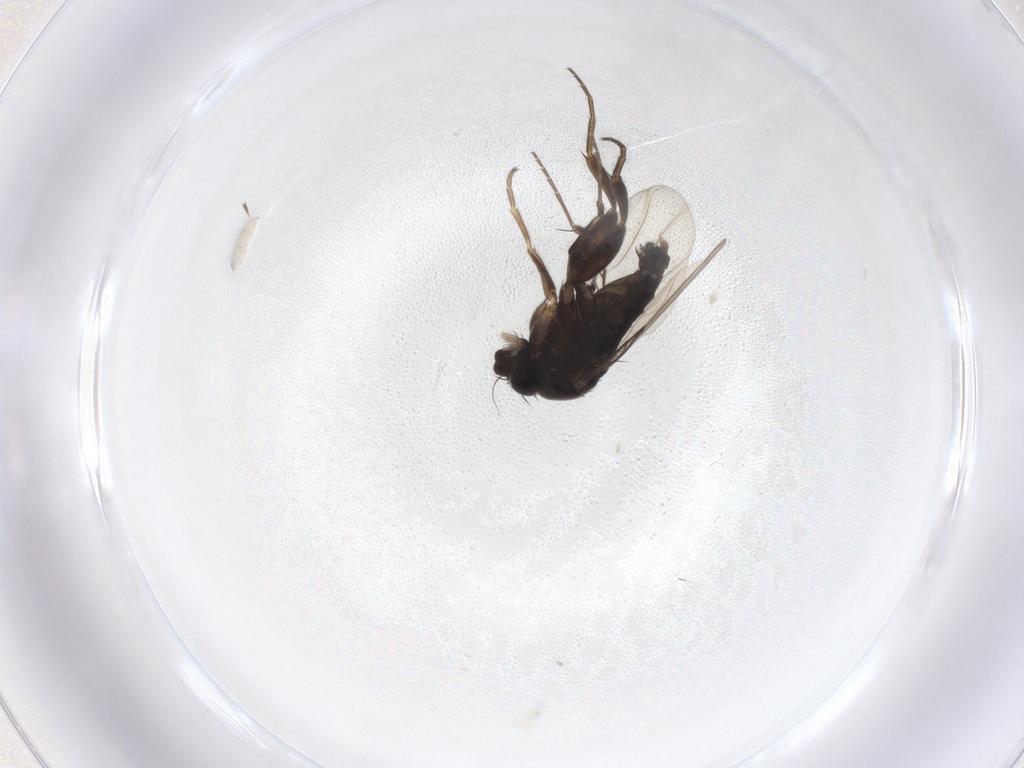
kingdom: Animalia
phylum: Arthropoda
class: Insecta
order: Diptera
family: Phoridae
